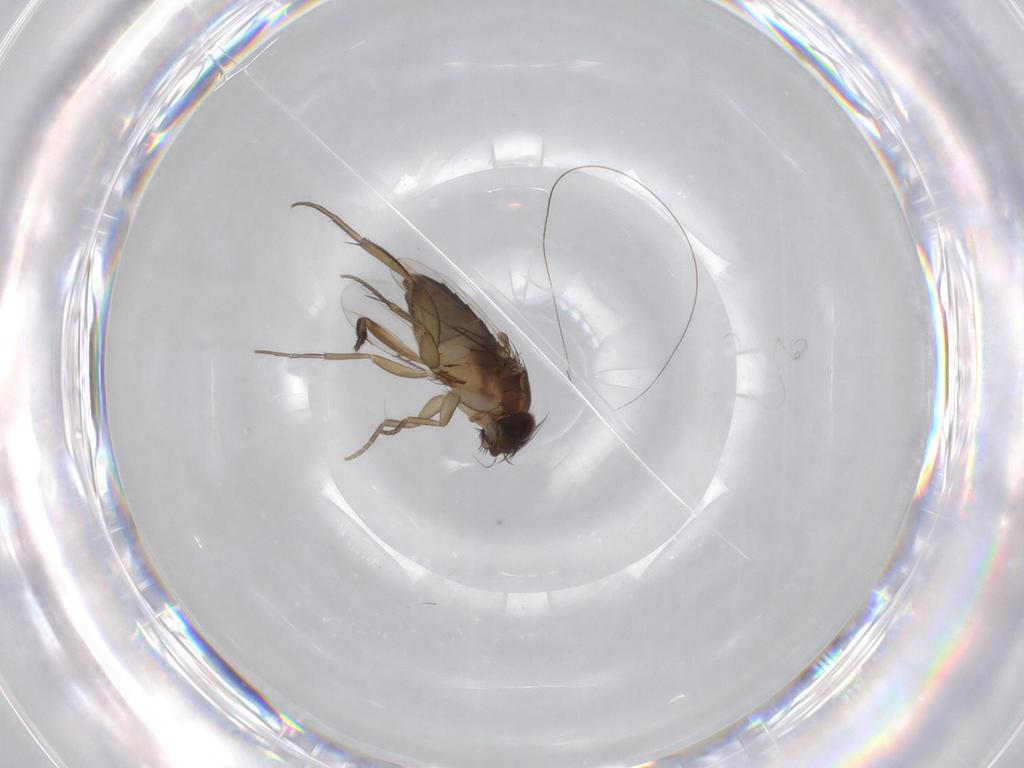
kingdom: Animalia
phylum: Arthropoda
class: Insecta
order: Diptera
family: Phoridae
